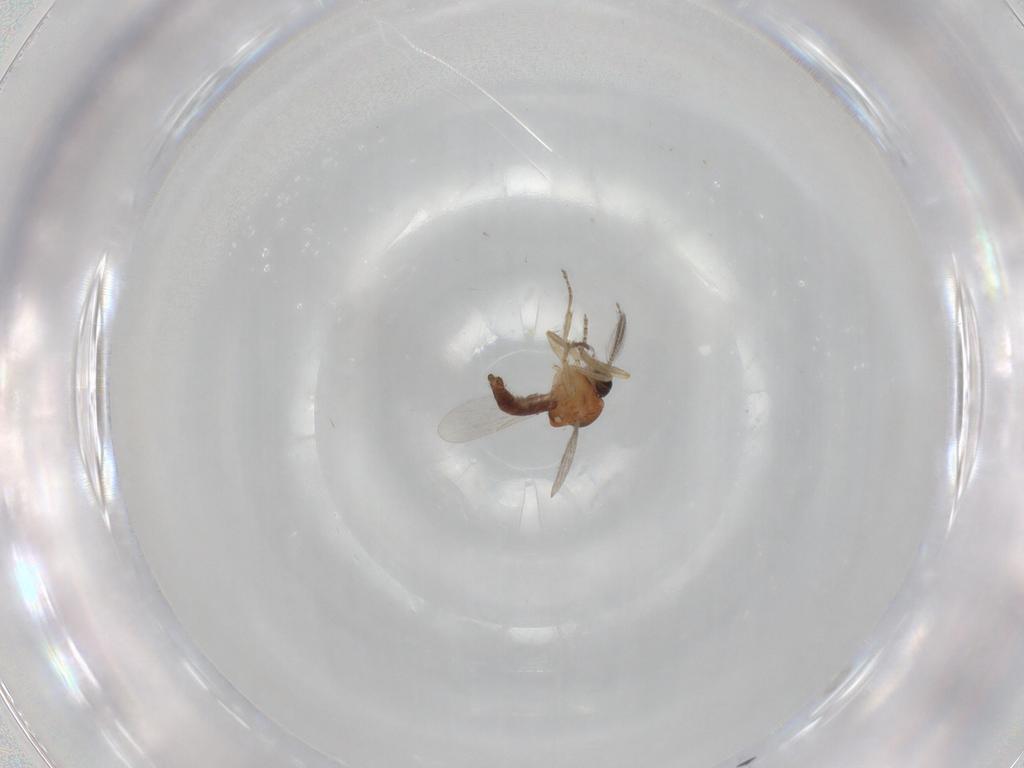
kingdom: Animalia
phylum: Arthropoda
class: Insecta
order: Diptera
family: Ceratopogonidae
